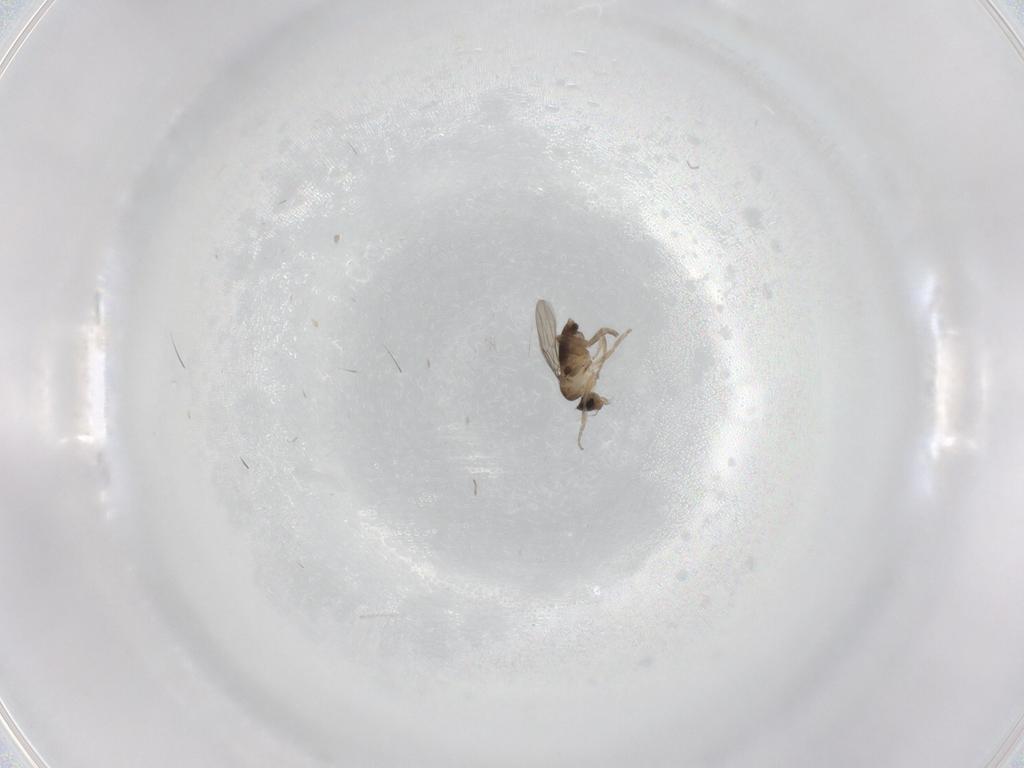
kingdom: Animalia
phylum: Arthropoda
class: Insecta
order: Diptera
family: Phoridae
